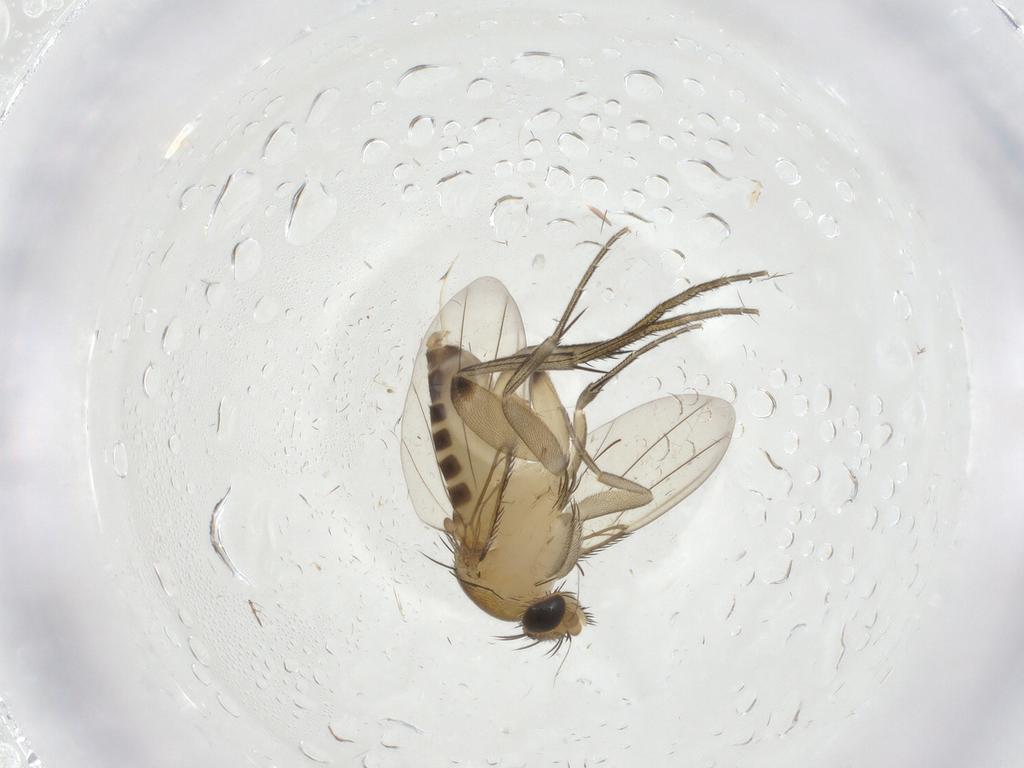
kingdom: Animalia
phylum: Arthropoda
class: Insecta
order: Diptera
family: Phoridae
